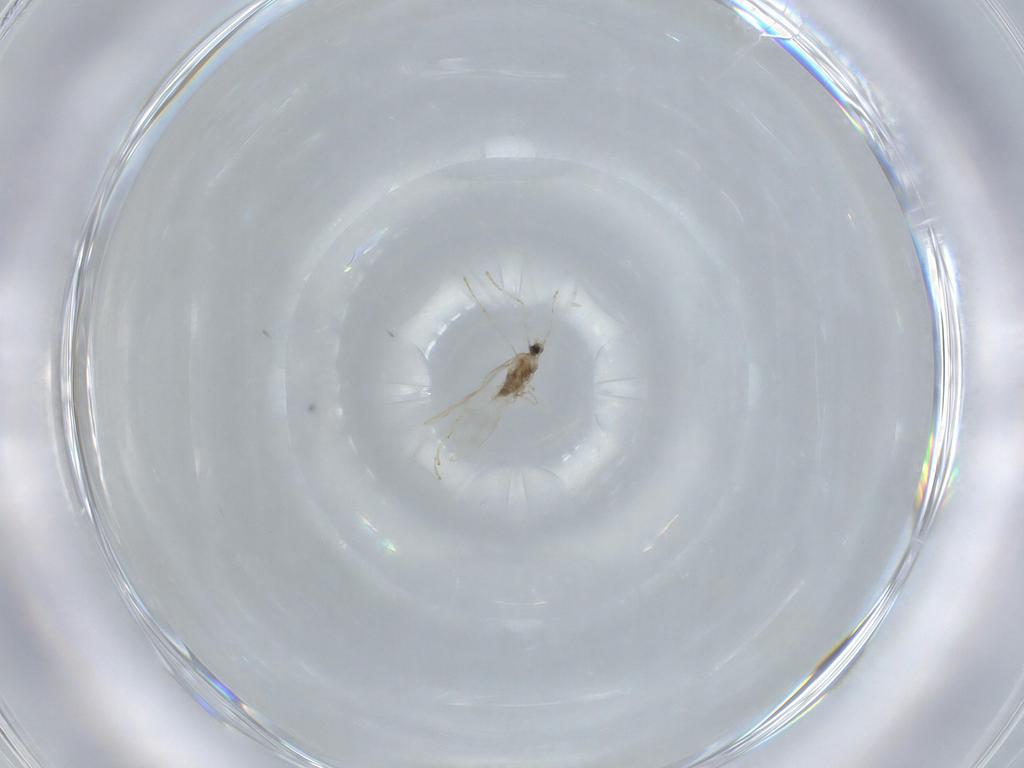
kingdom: Animalia
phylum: Arthropoda
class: Insecta
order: Diptera
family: Cecidomyiidae
